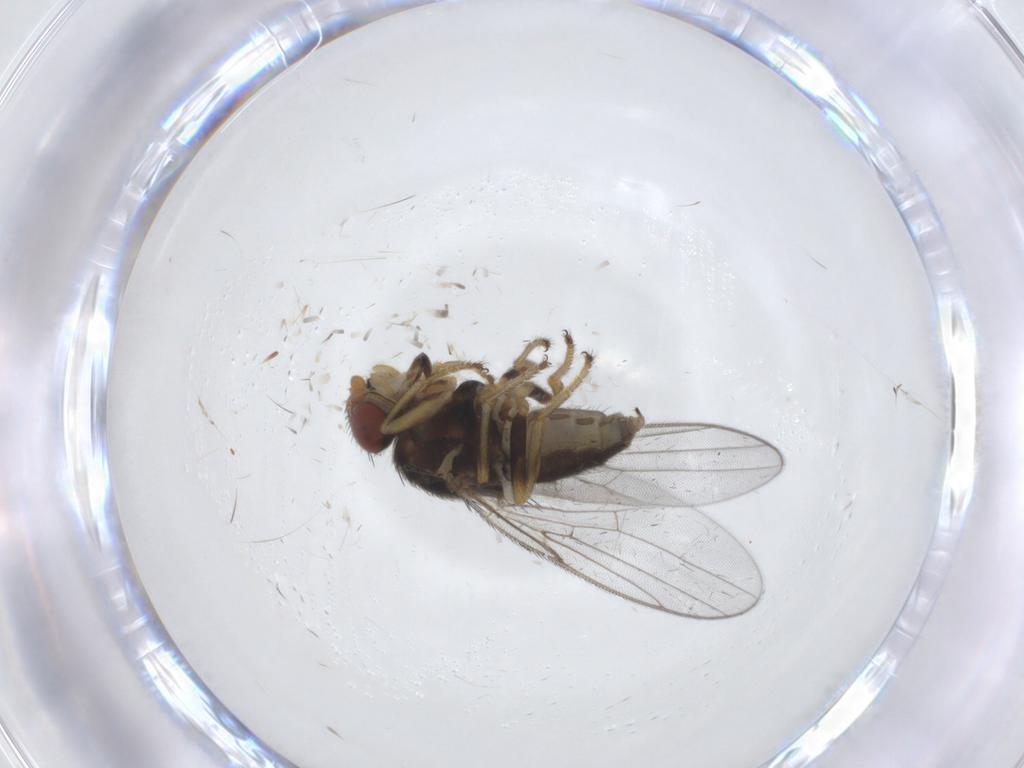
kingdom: Animalia
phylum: Arthropoda
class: Insecta
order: Diptera
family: Chloropidae
